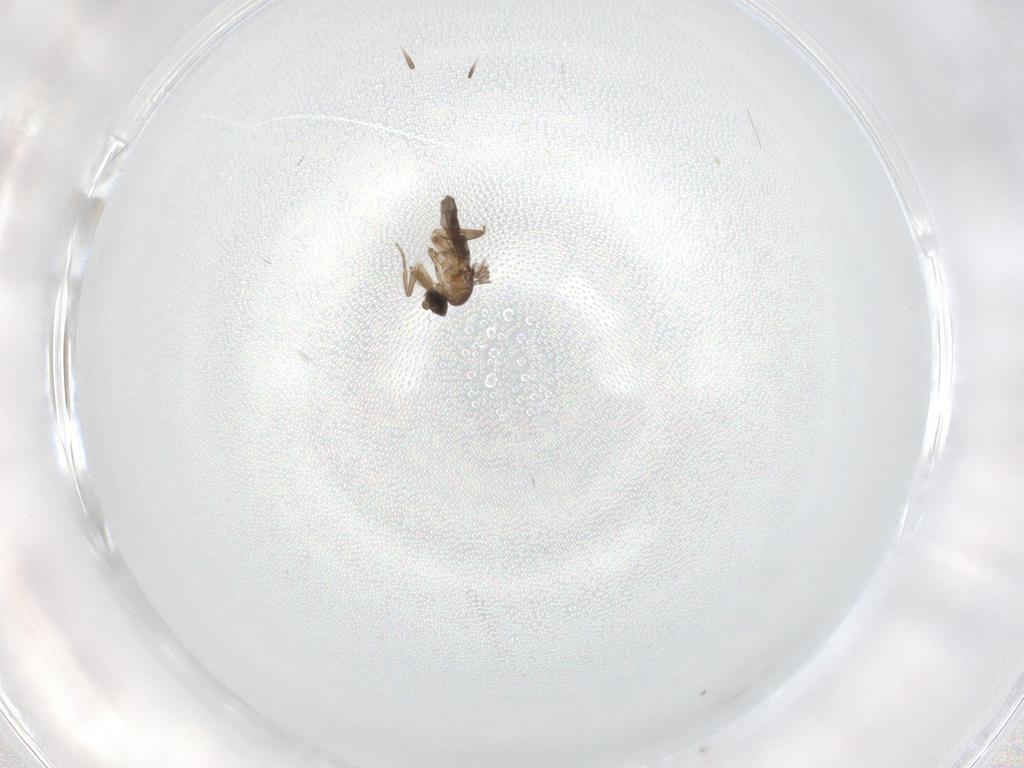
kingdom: Animalia
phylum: Arthropoda
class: Insecta
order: Diptera
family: Phoridae
